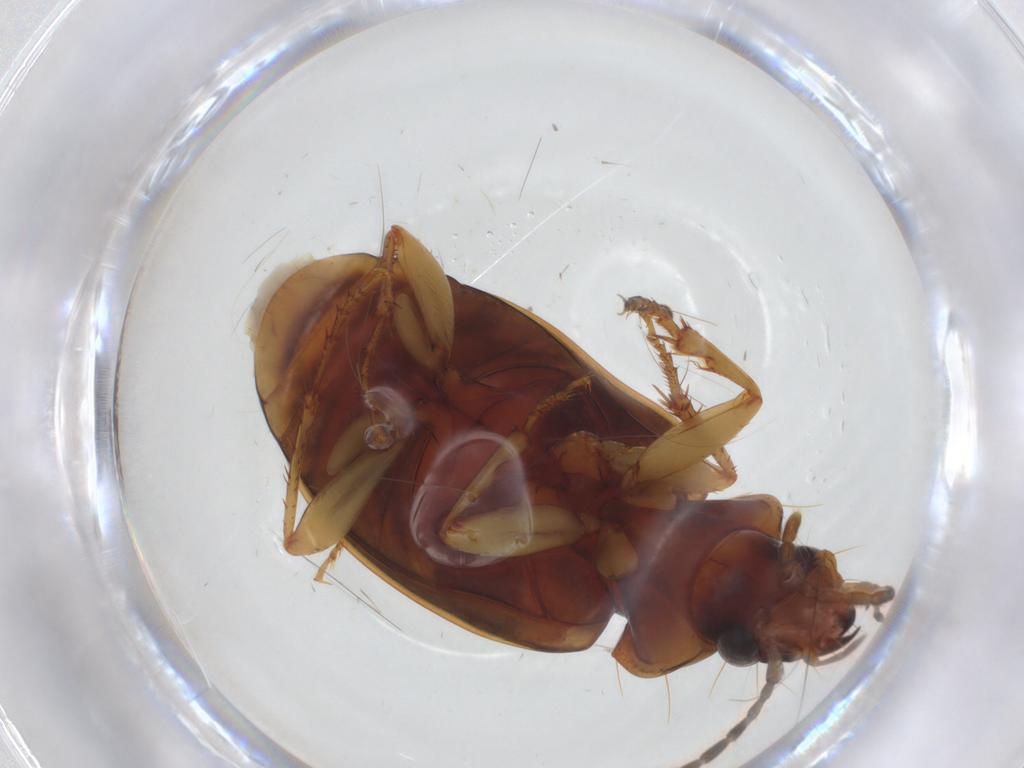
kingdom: Animalia
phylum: Arthropoda
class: Insecta
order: Coleoptera
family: Carabidae
